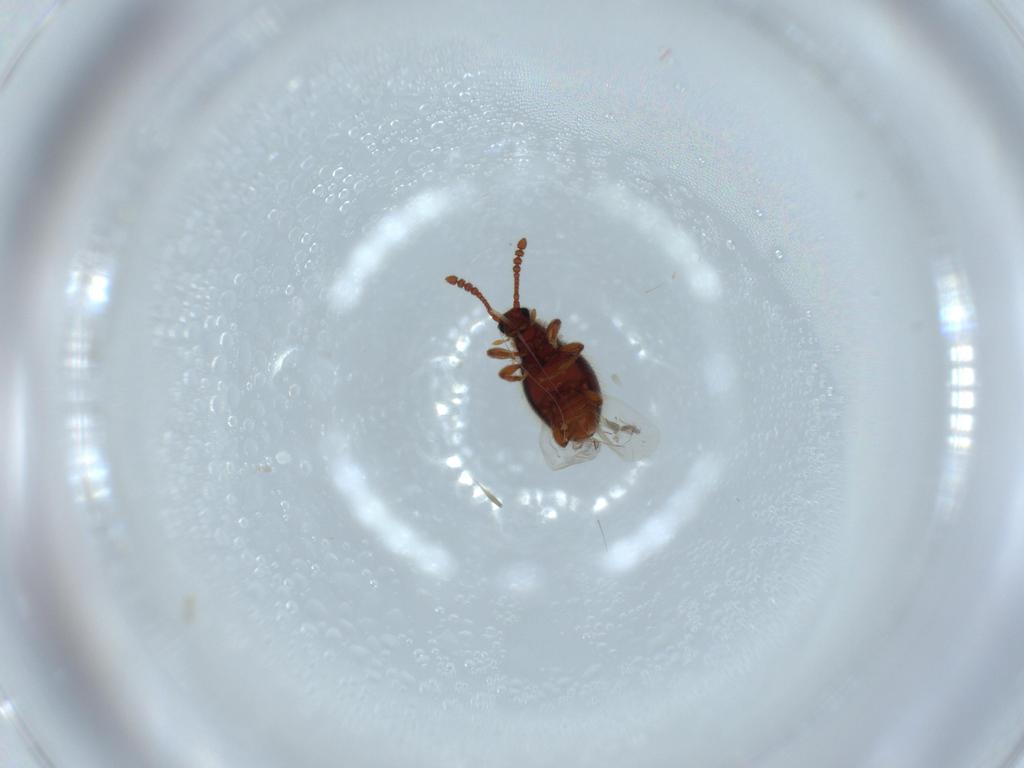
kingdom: Animalia
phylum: Arthropoda
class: Insecta
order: Coleoptera
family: Staphylinidae
